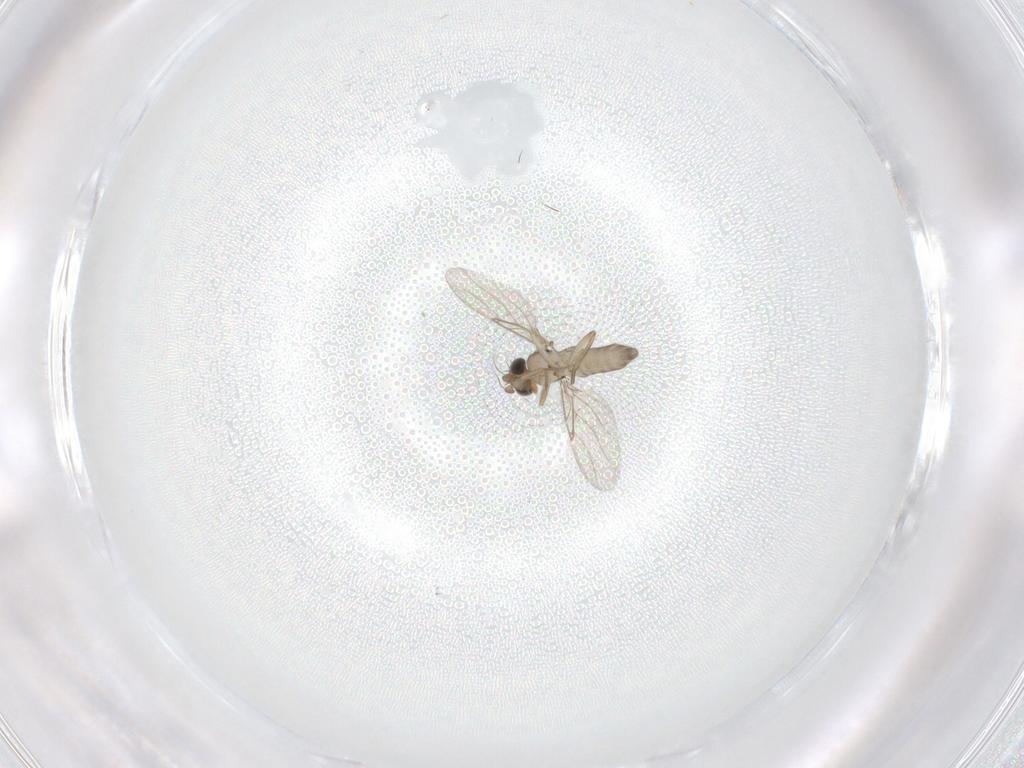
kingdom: Animalia
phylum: Arthropoda
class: Insecta
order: Diptera
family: Phoridae
